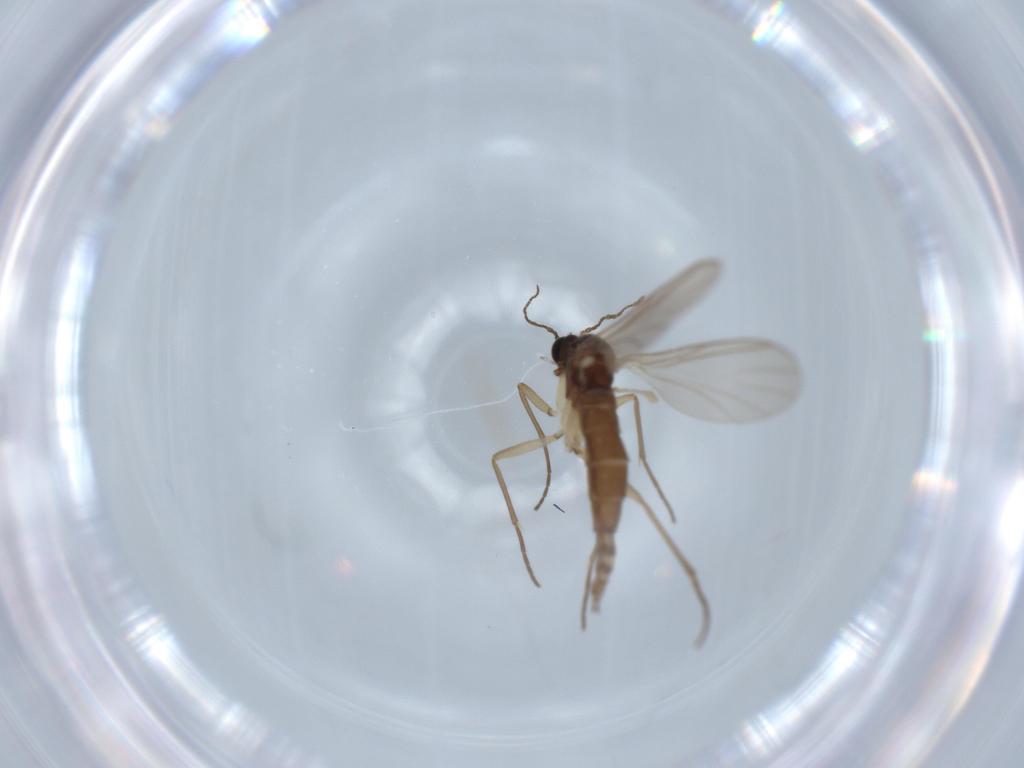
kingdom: Animalia
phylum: Arthropoda
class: Insecta
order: Diptera
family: Sciaridae
